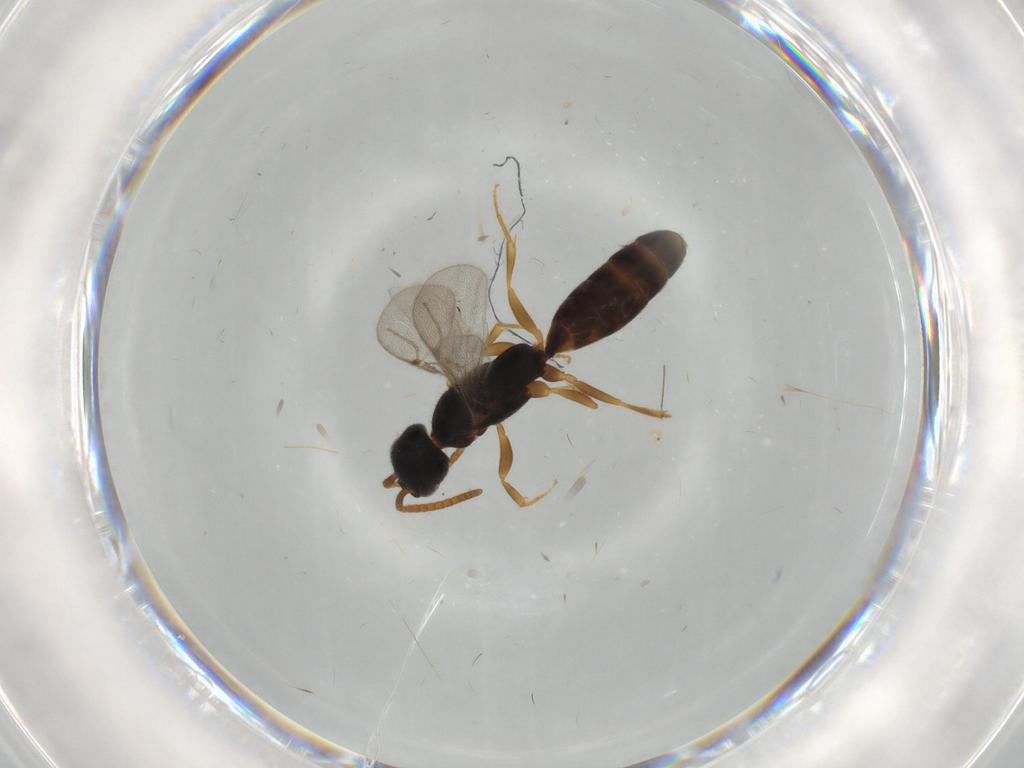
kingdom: Animalia
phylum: Arthropoda
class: Insecta
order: Hymenoptera
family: Bethylidae
